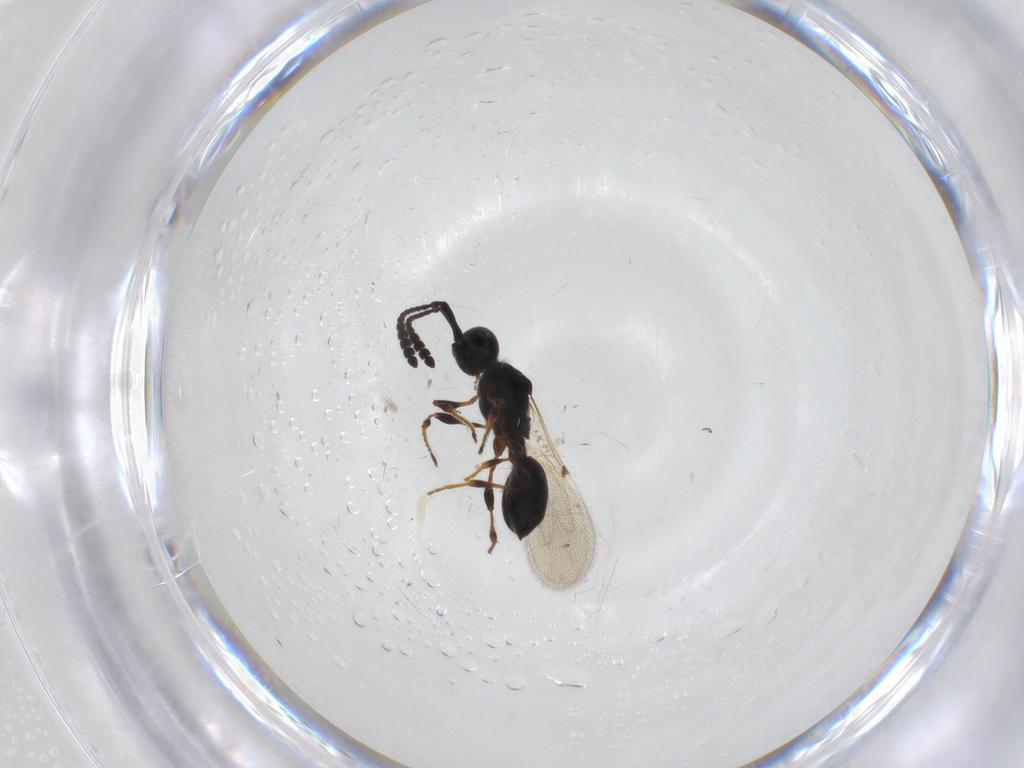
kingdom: Animalia
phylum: Arthropoda
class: Insecta
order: Hymenoptera
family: Diapriidae
